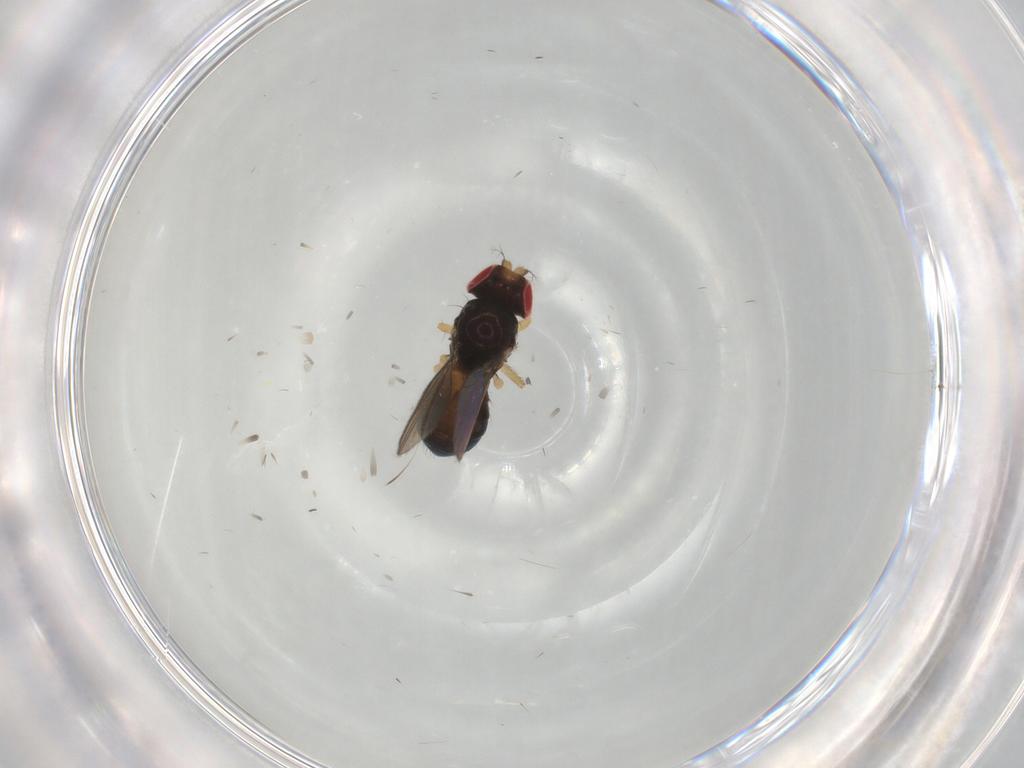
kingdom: Animalia
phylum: Arthropoda
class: Insecta
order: Diptera
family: Drosophilidae
